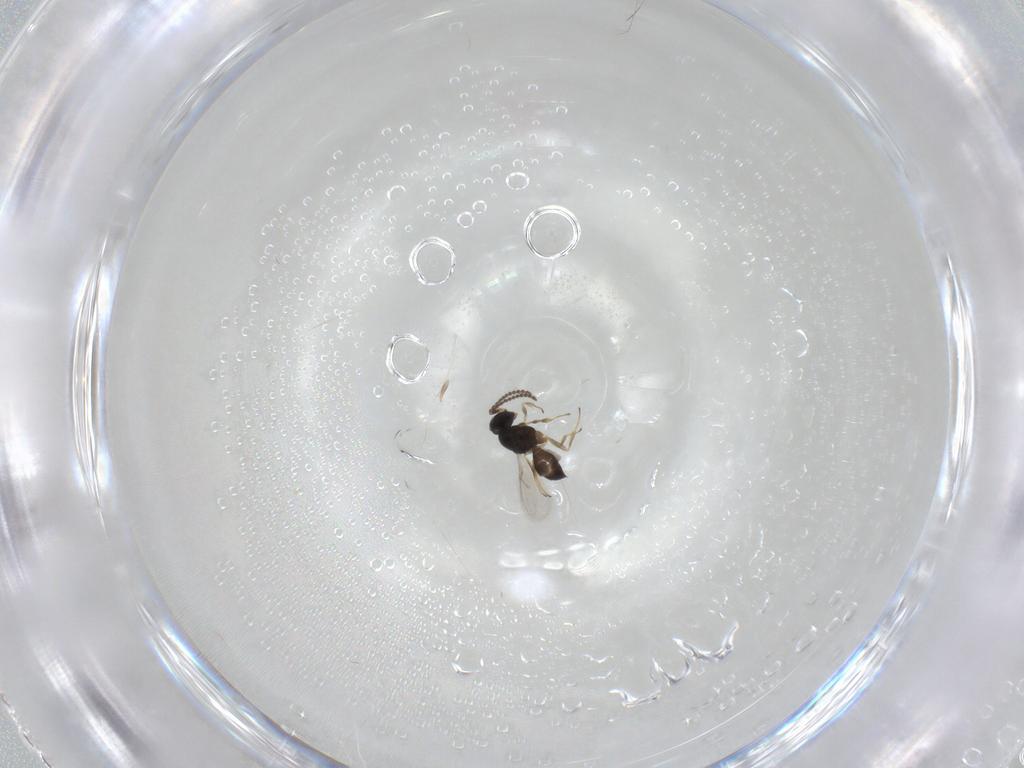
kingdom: Animalia
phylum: Arthropoda
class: Insecta
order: Hymenoptera
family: Scelionidae
